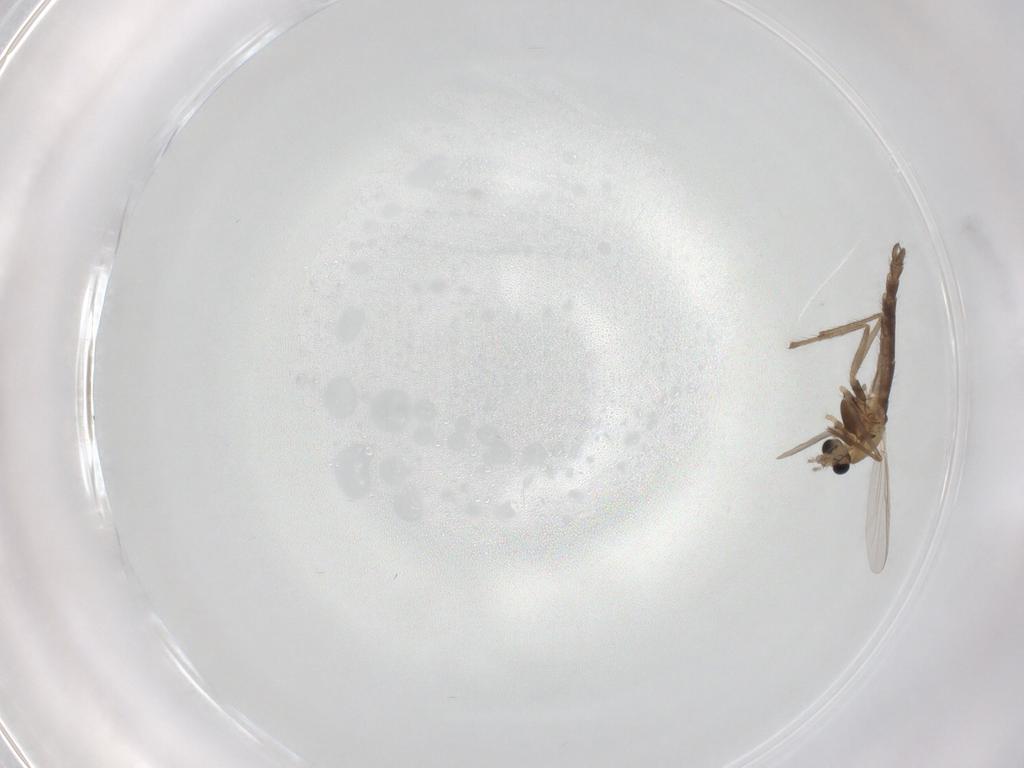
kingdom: Animalia
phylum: Arthropoda
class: Insecta
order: Diptera
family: Chironomidae
